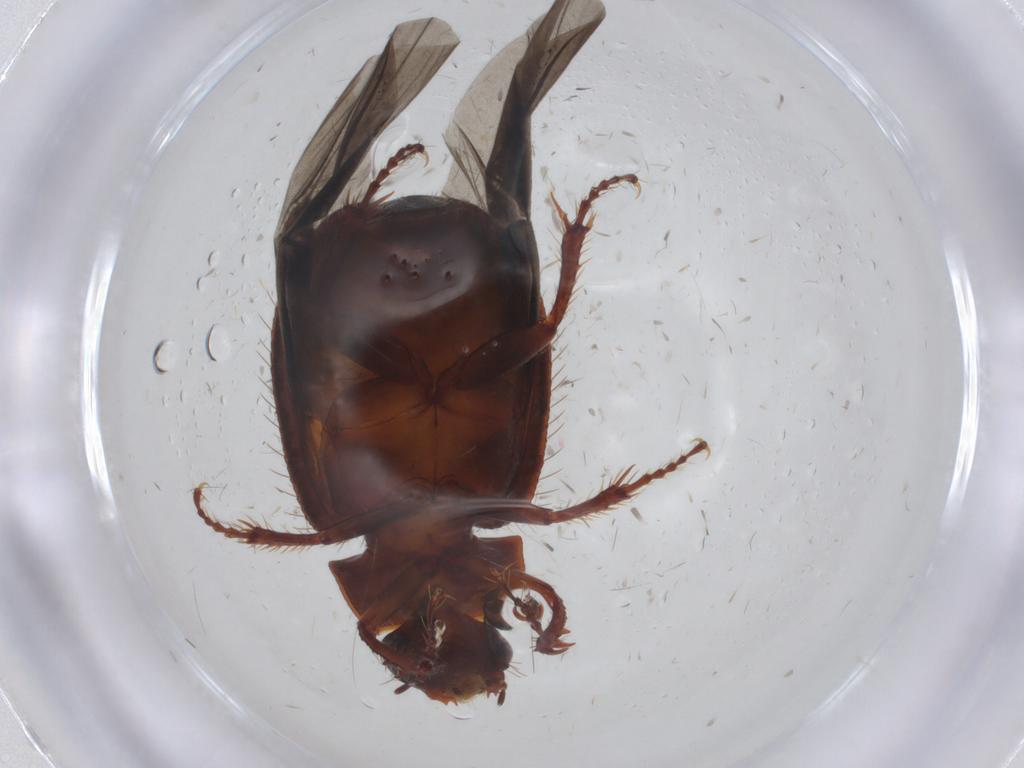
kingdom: Animalia
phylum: Arthropoda
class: Insecta
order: Coleoptera
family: Hybosoridae
